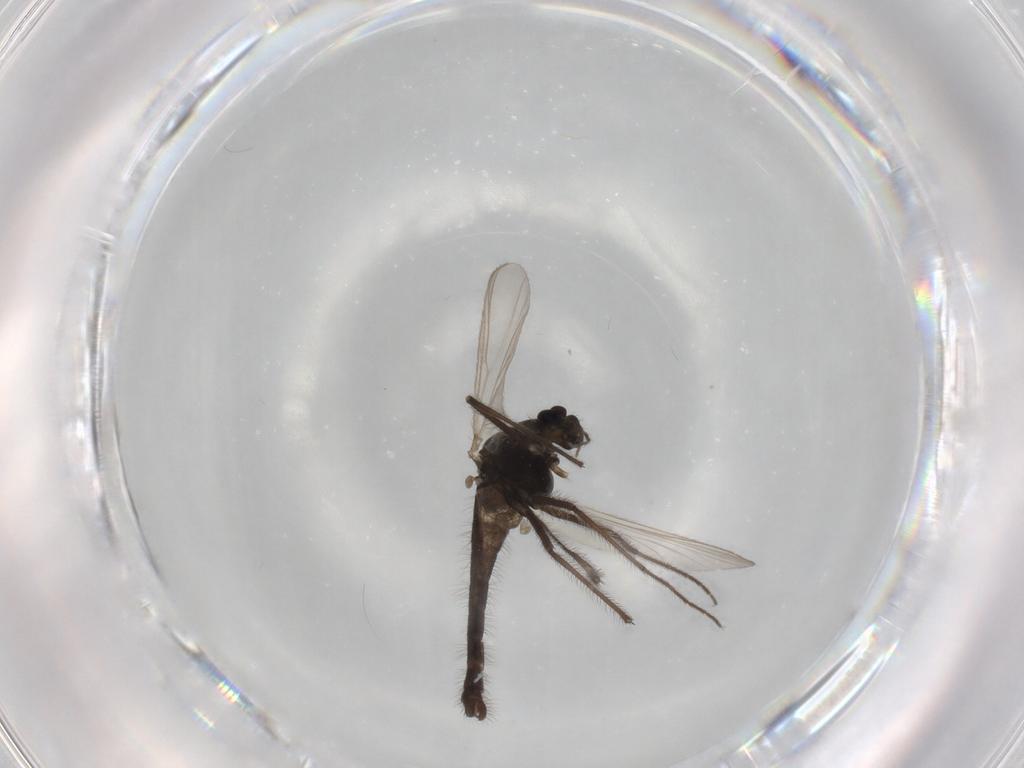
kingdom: Animalia
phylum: Arthropoda
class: Insecta
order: Diptera
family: Chironomidae
